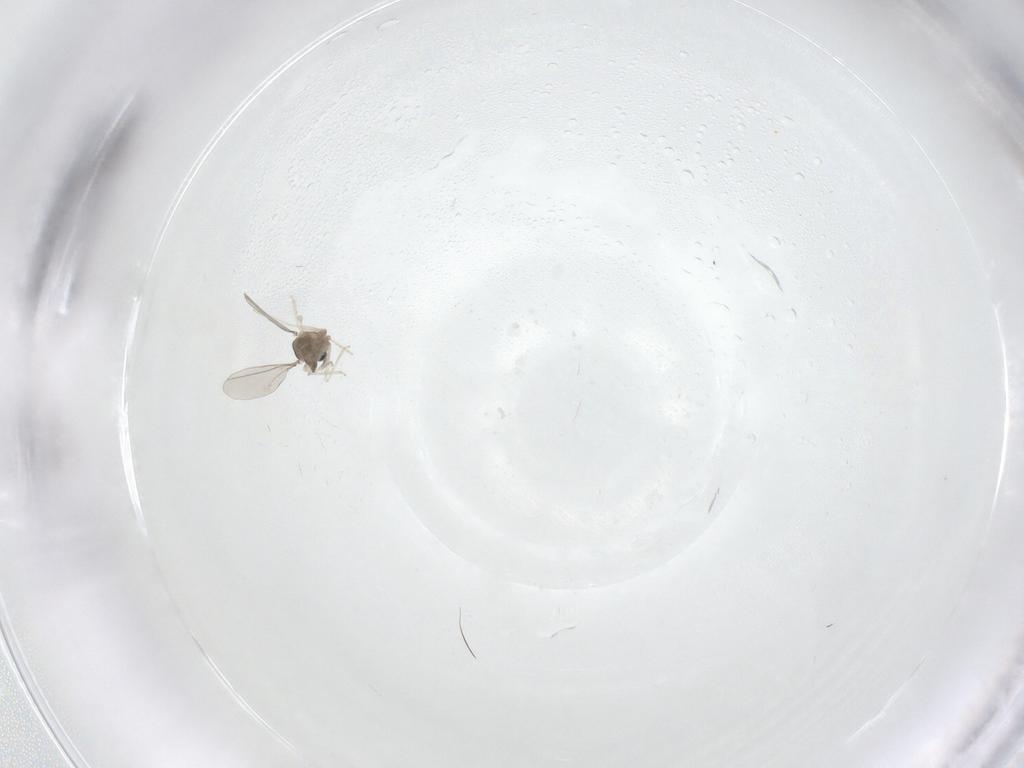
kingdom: Animalia
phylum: Arthropoda
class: Insecta
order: Diptera
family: Cecidomyiidae
